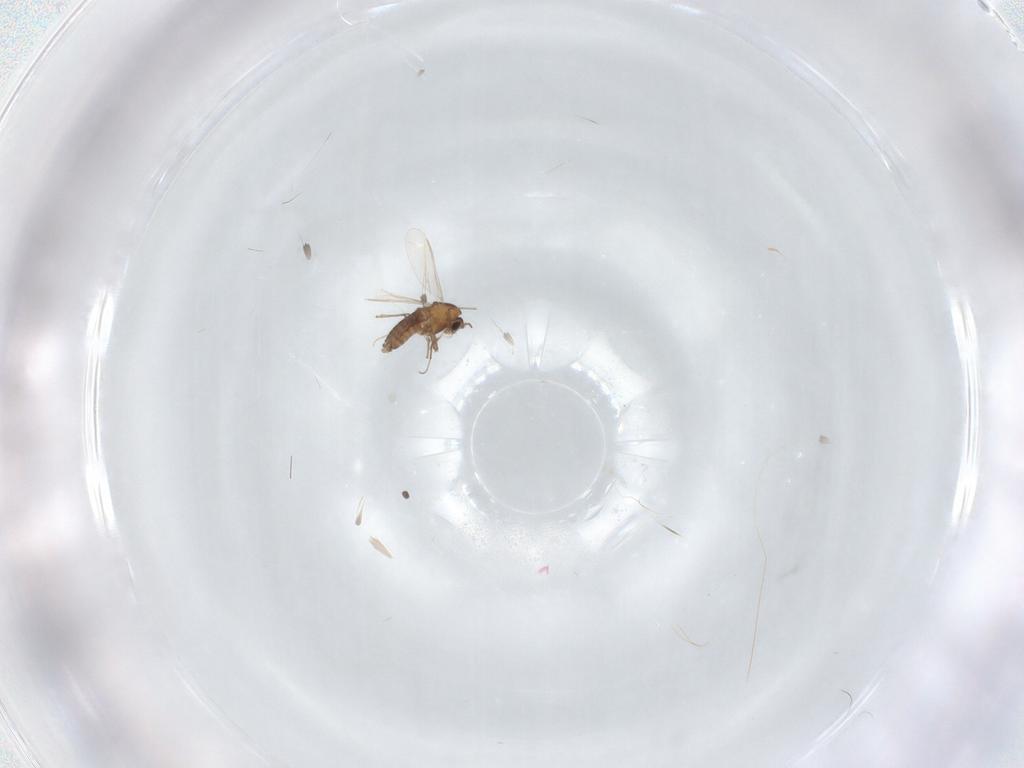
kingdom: Animalia
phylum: Arthropoda
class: Insecta
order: Diptera
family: Chironomidae
